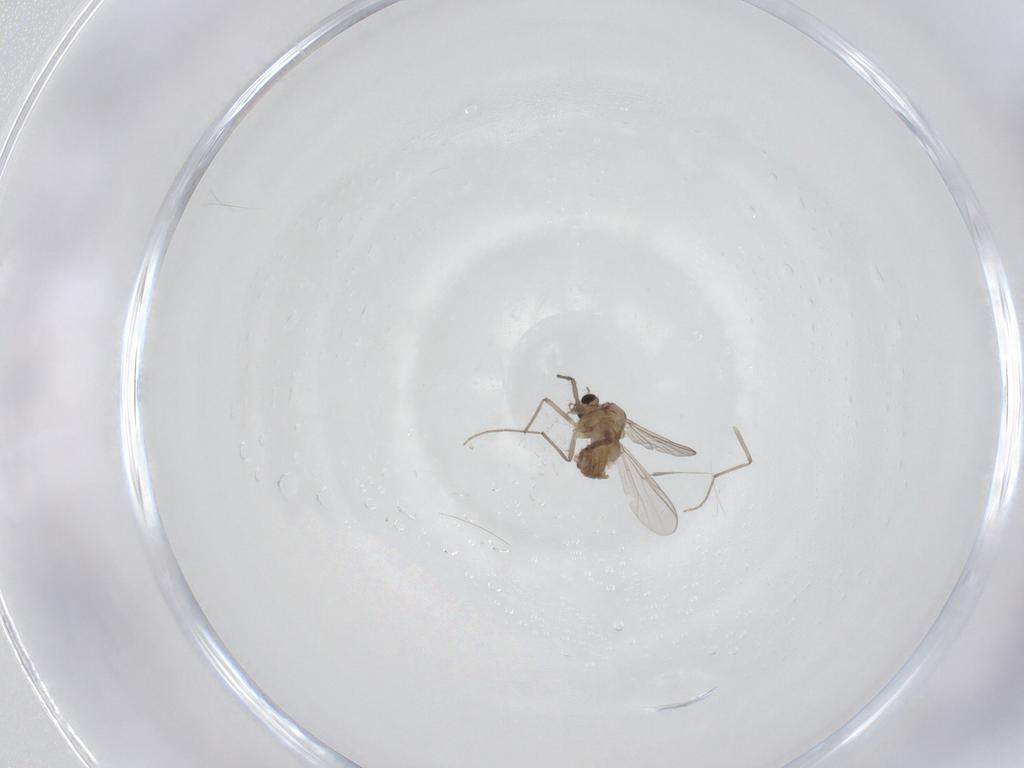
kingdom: Animalia
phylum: Arthropoda
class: Insecta
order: Diptera
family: Chironomidae
